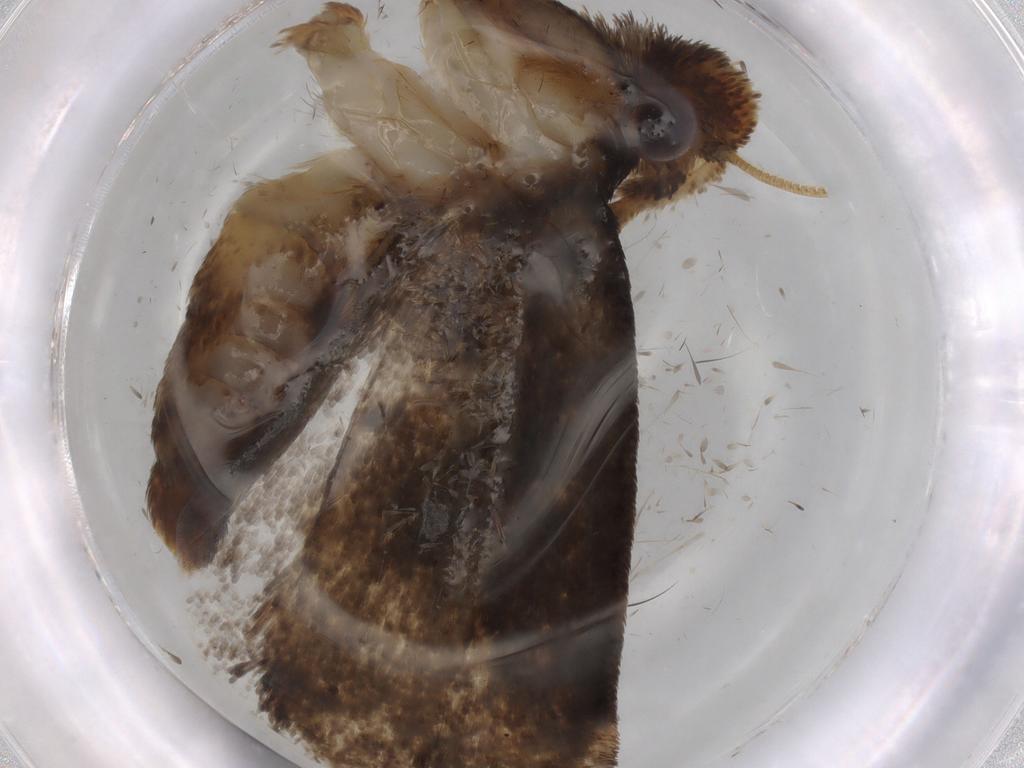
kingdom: Animalia
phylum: Arthropoda
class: Insecta
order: Lepidoptera
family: Tineidae
